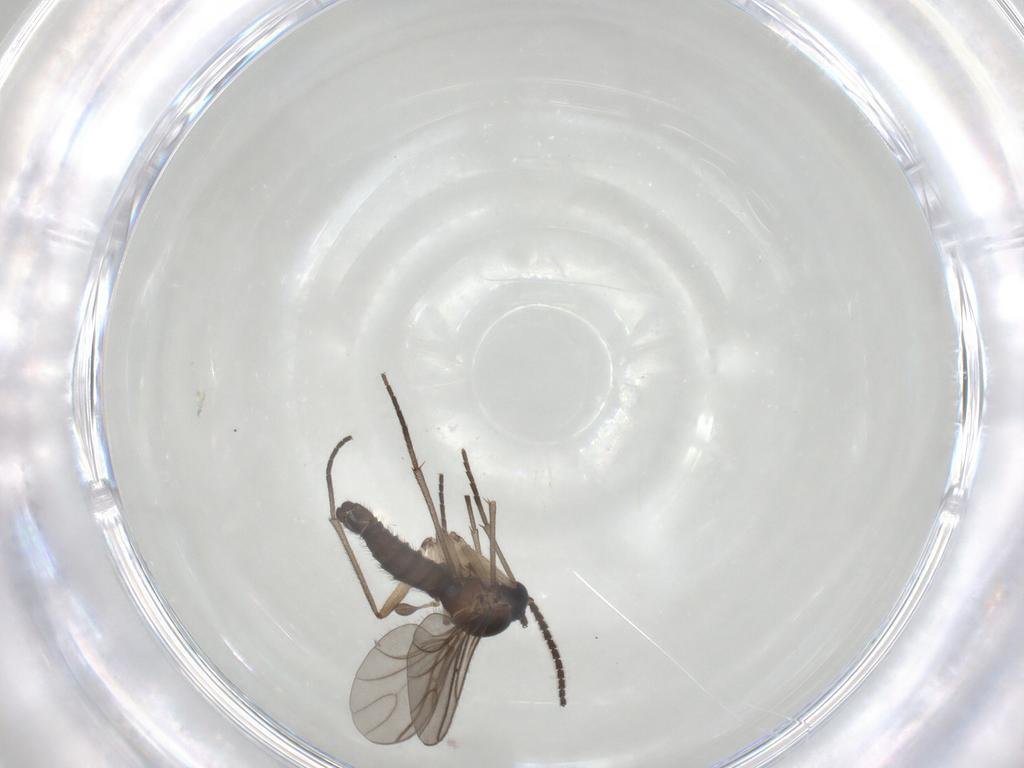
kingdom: Animalia
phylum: Arthropoda
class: Insecta
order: Diptera
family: Sciaridae
